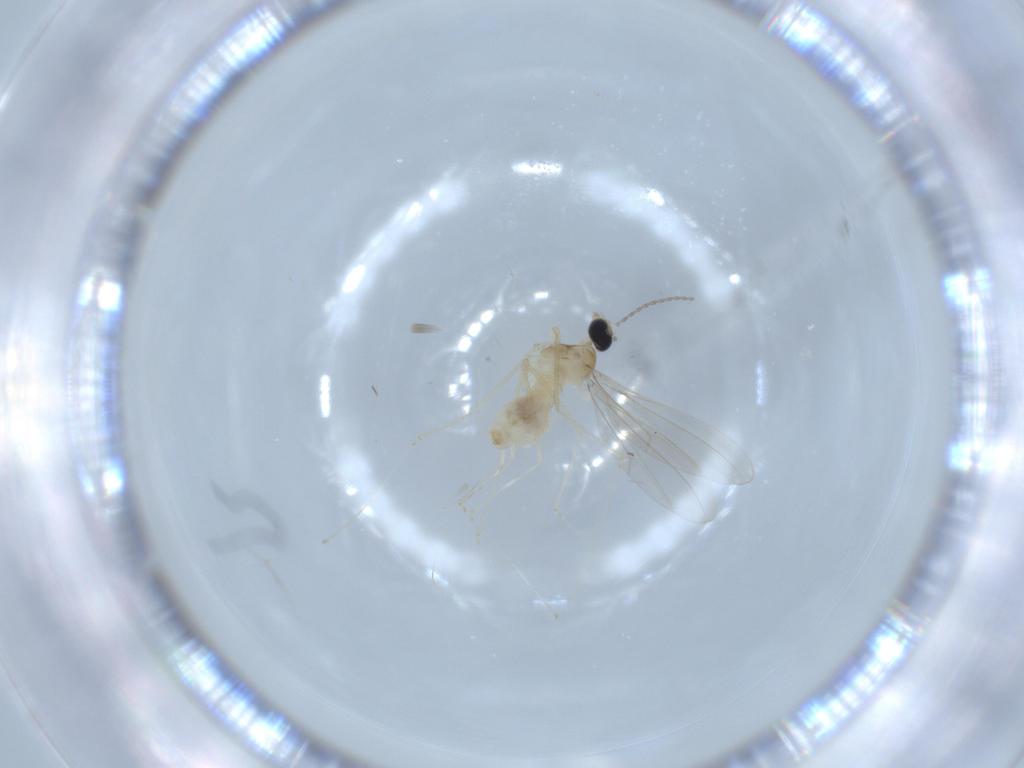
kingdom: Animalia
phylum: Arthropoda
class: Insecta
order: Diptera
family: Cecidomyiidae
